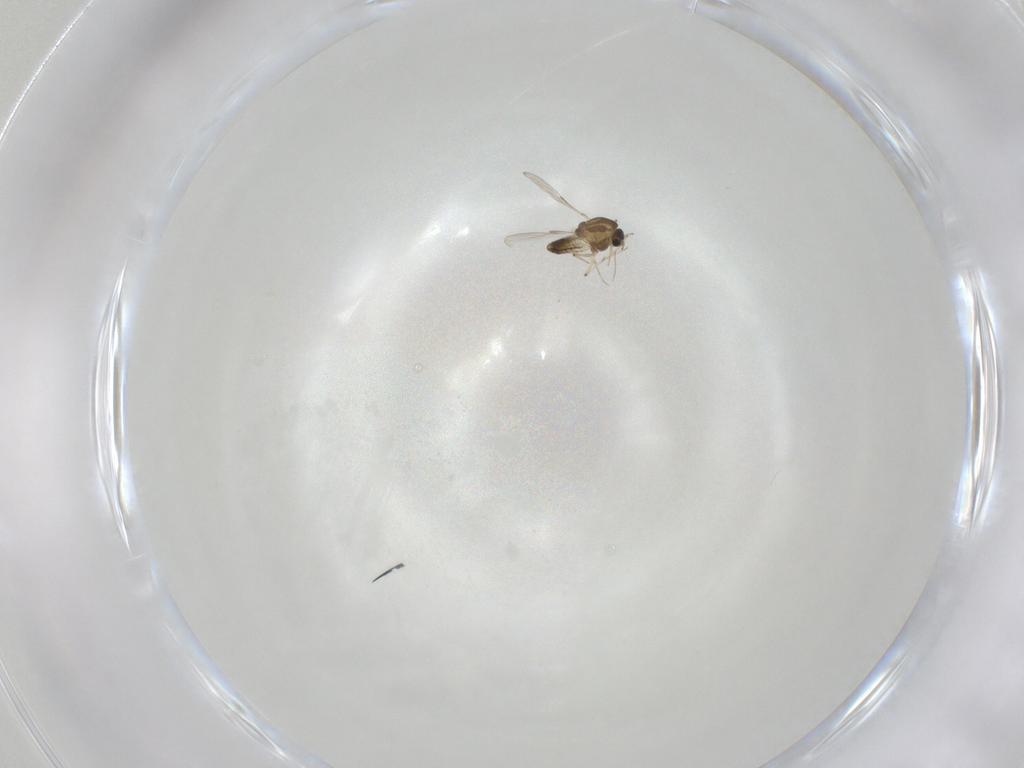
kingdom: Animalia
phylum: Arthropoda
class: Insecta
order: Diptera
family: Chironomidae
